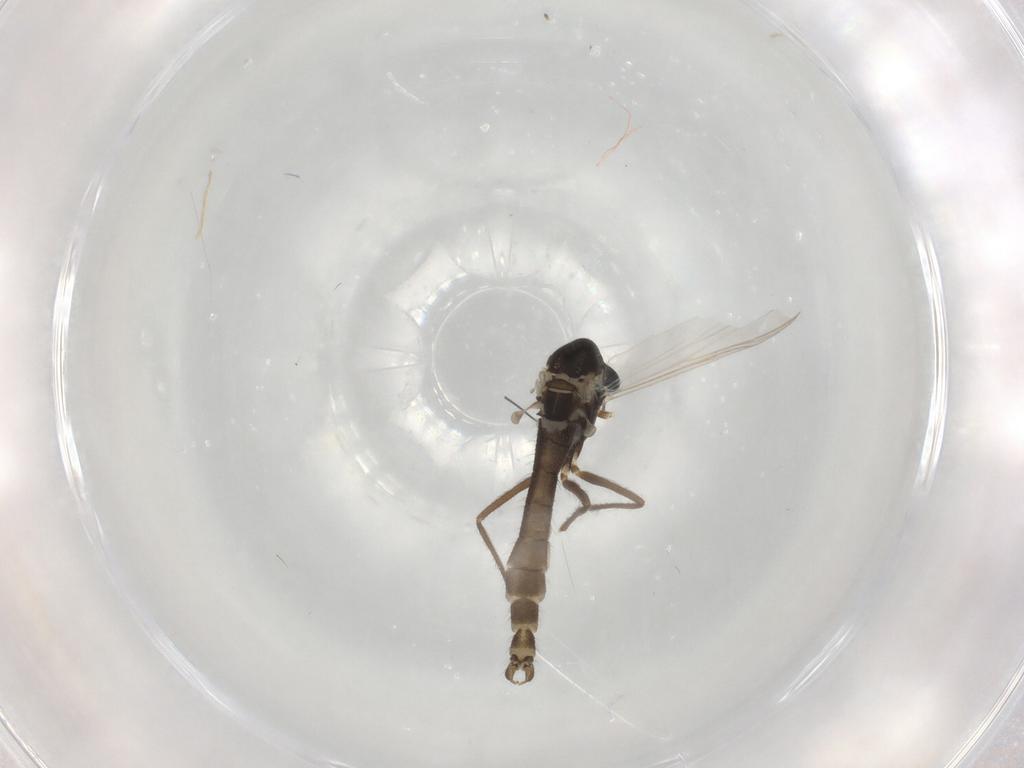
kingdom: Animalia
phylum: Arthropoda
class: Insecta
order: Diptera
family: Chironomidae
